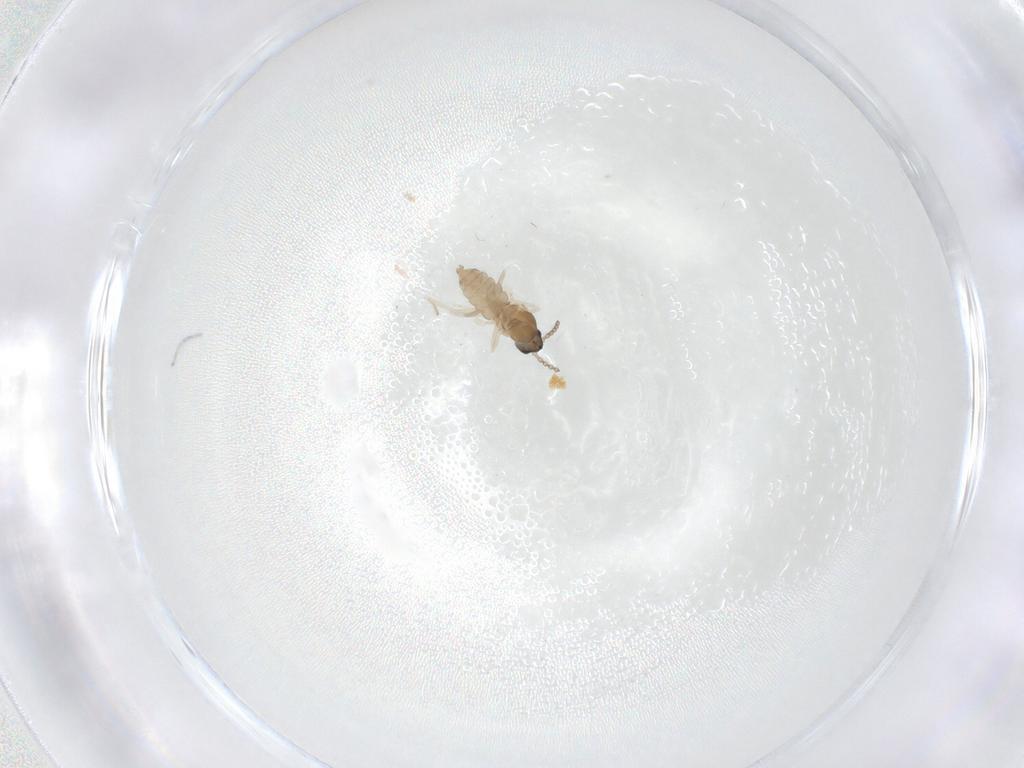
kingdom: Animalia
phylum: Arthropoda
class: Insecta
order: Diptera
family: Cecidomyiidae
